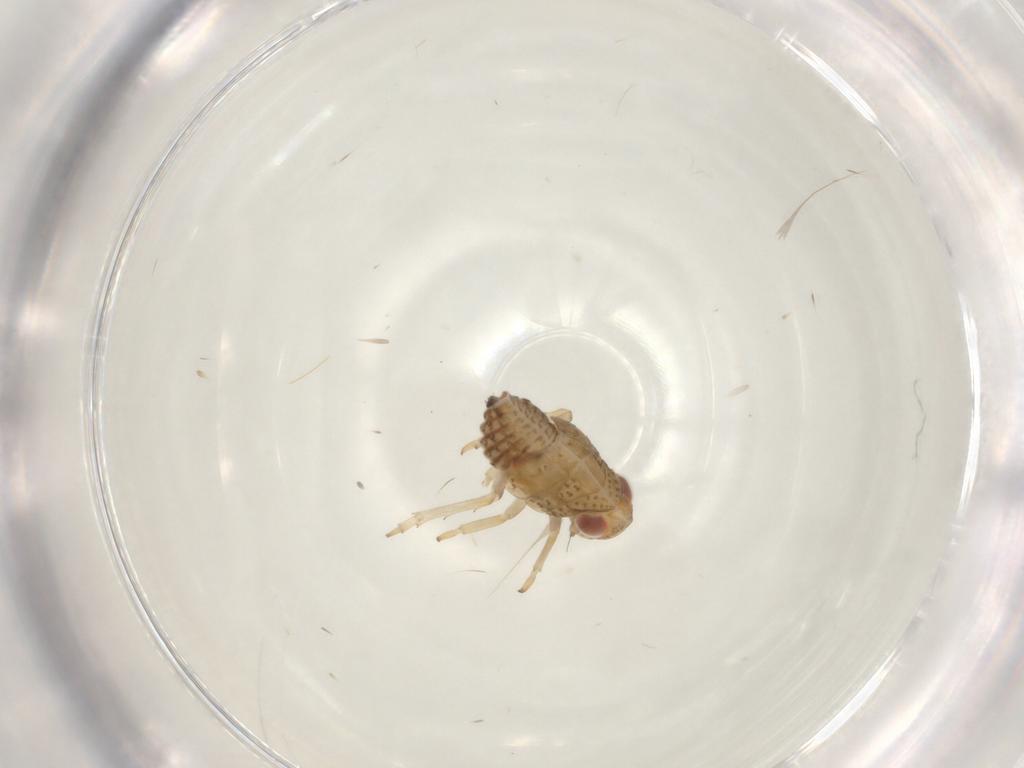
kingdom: Animalia
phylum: Arthropoda
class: Insecta
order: Hemiptera
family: Issidae
